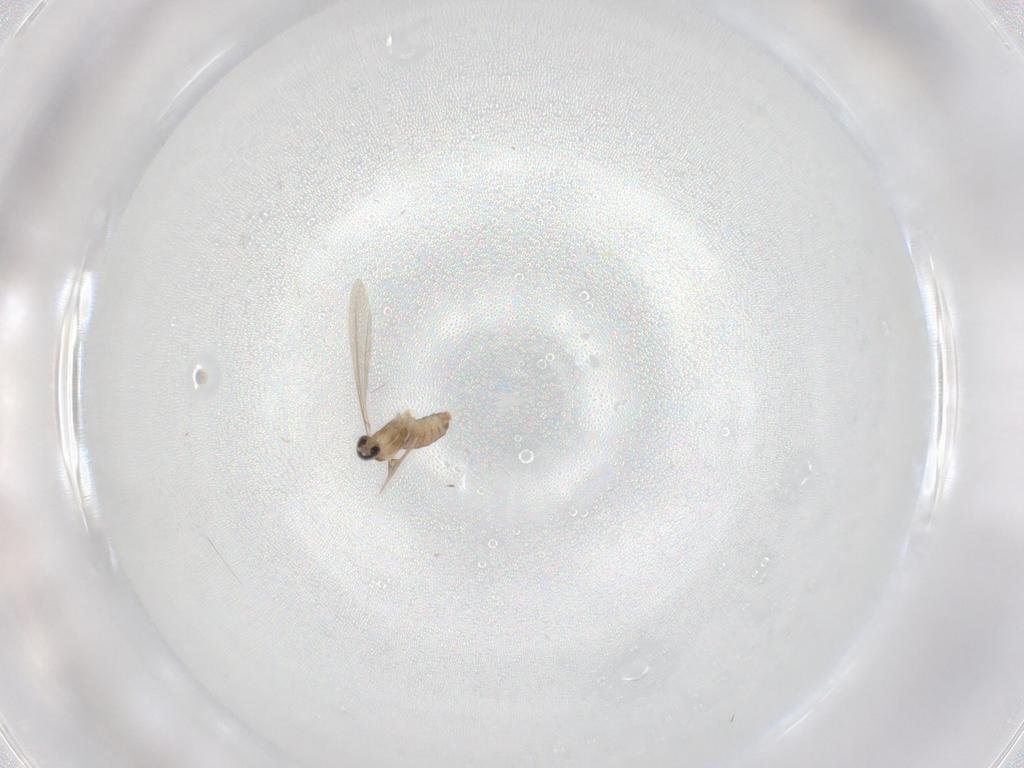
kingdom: Animalia
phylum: Arthropoda
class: Insecta
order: Diptera
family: Cecidomyiidae
